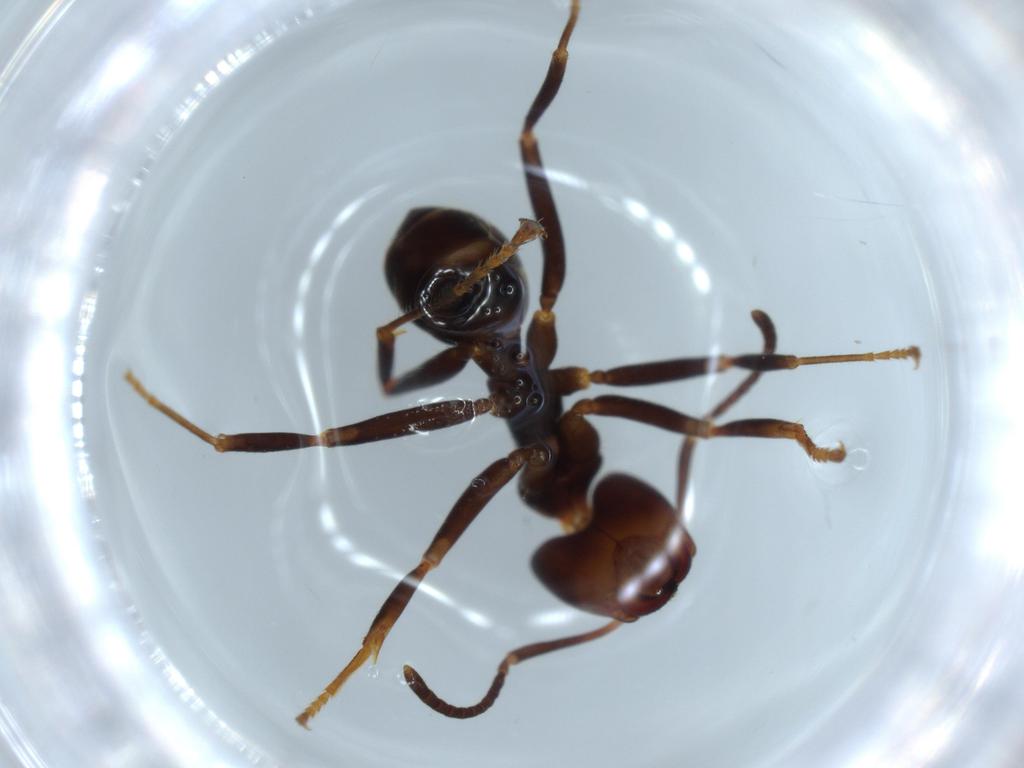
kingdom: Animalia
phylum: Arthropoda
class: Insecta
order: Hymenoptera
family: Formicidae
